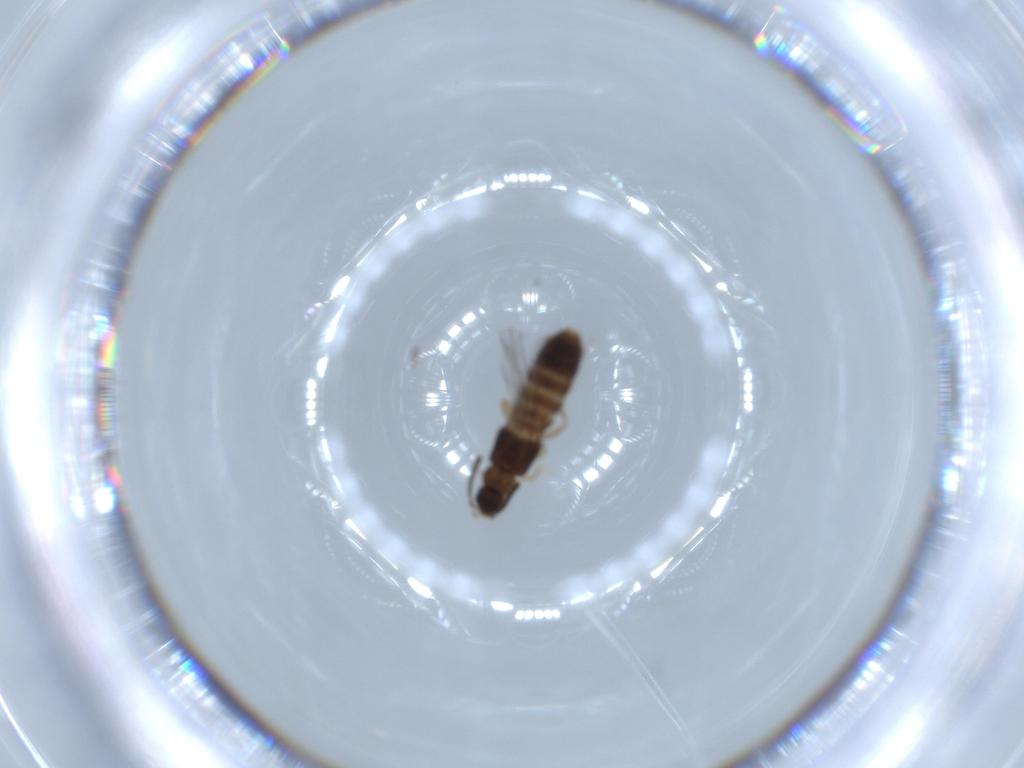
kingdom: Animalia
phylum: Arthropoda
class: Insecta
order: Coleoptera
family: Staphylinidae
